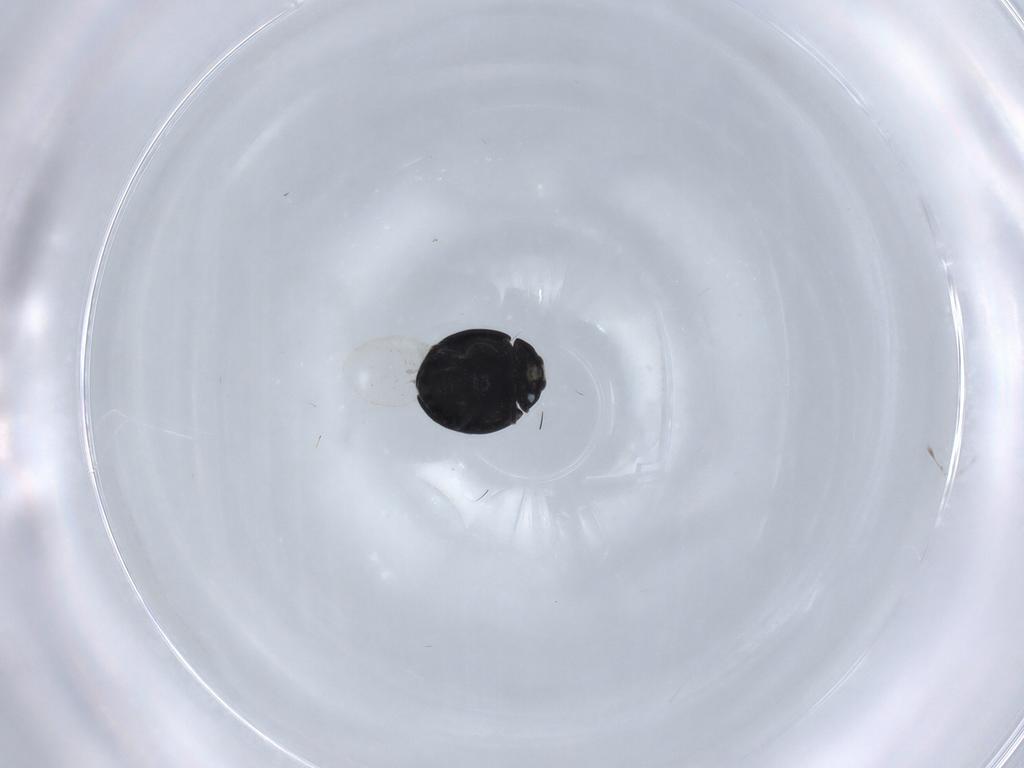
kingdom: Animalia
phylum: Arthropoda
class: Insecta
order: Coleoptera
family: Coccinellidae
